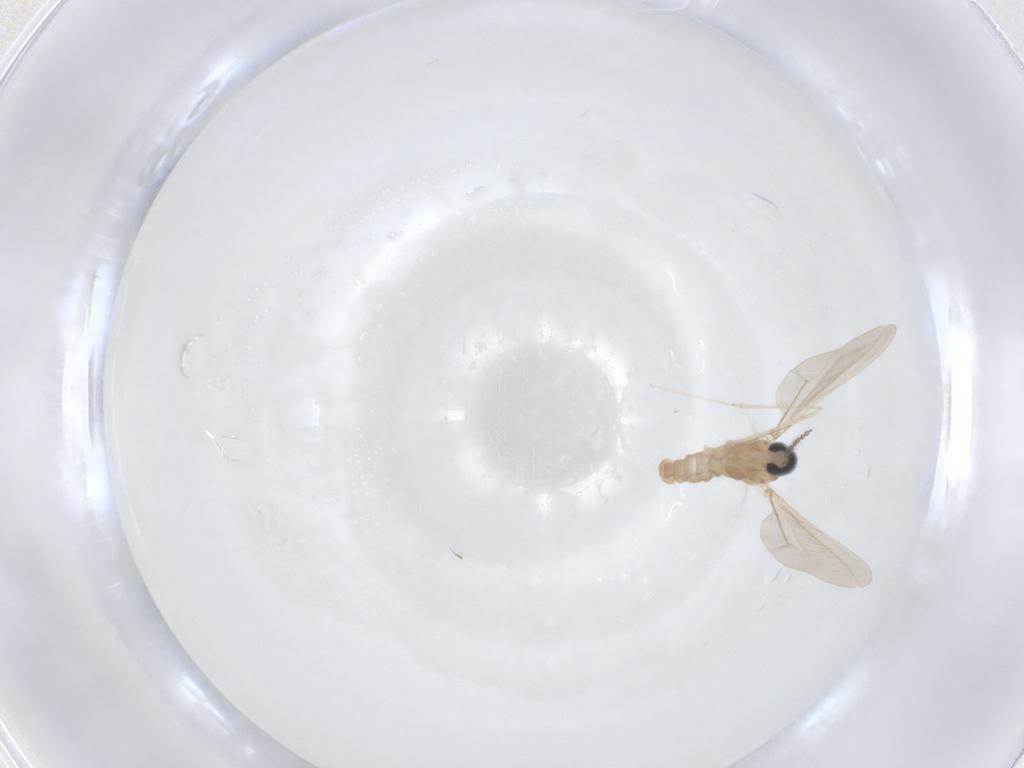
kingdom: Animalia
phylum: Arthropoda
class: Insecta
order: Diptera
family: Cecidomyiidae
